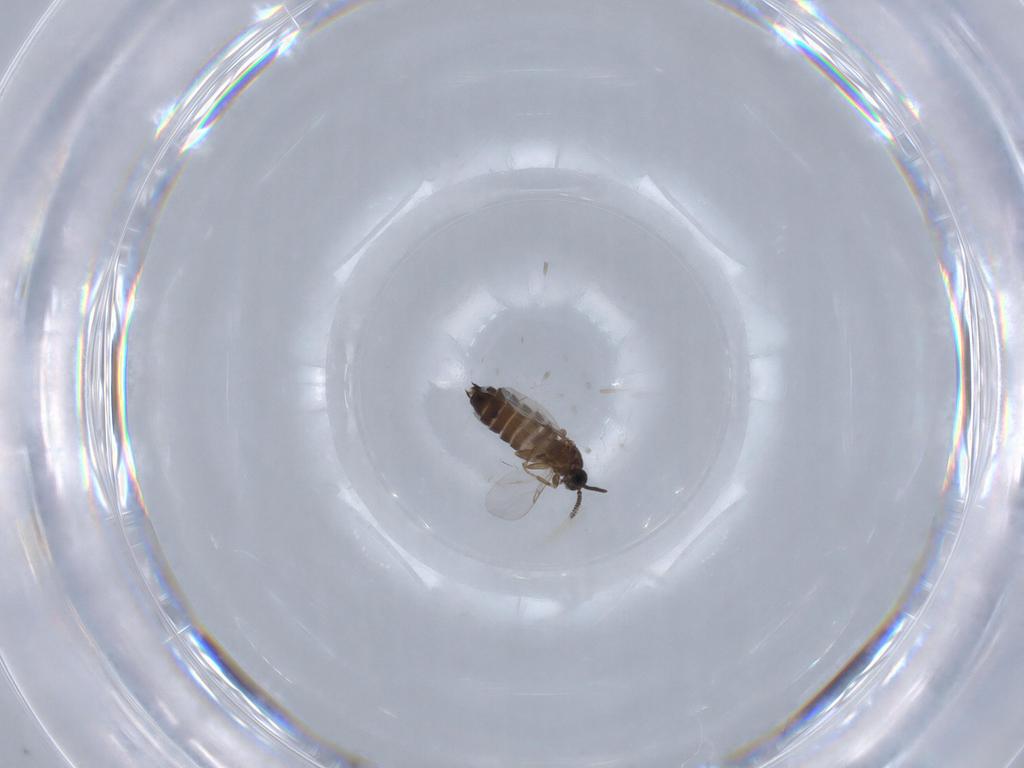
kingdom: Animalia
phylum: Arthropoda
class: Insecta
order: Diptera
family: Scatopsidae
